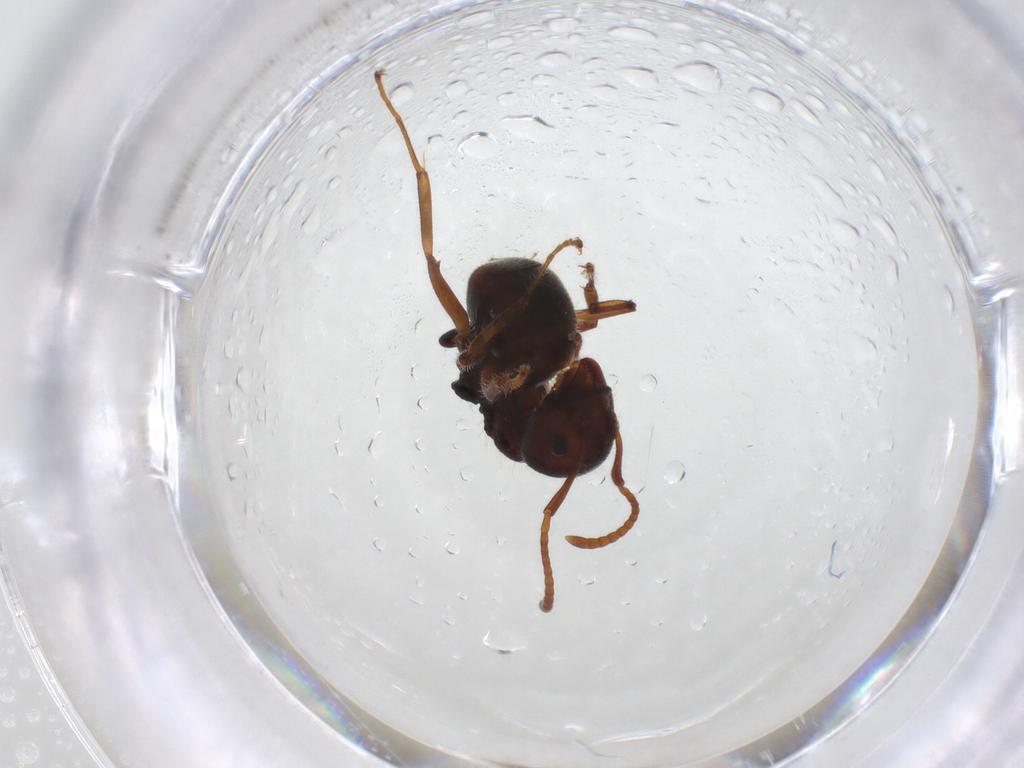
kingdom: Animalia
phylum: Arthropoda
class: Insecta
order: Hymenoptera
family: Formicidae
